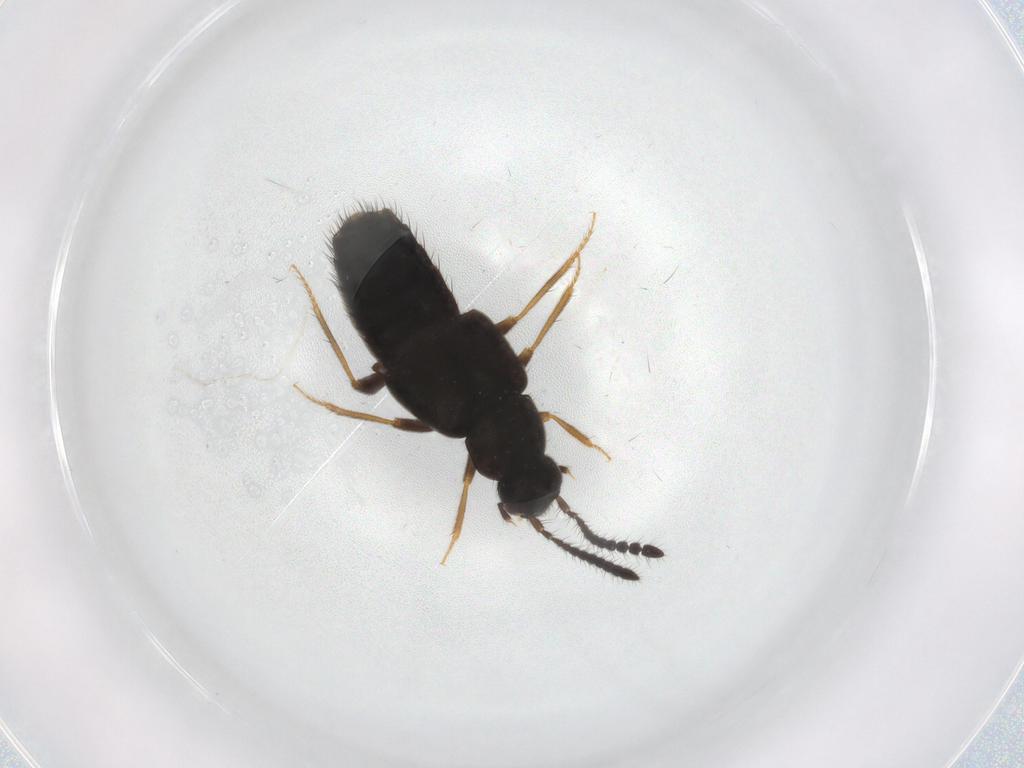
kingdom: Animalia
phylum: Arthropoda
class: Insecta
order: Coleoptera
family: Staphylinidae
